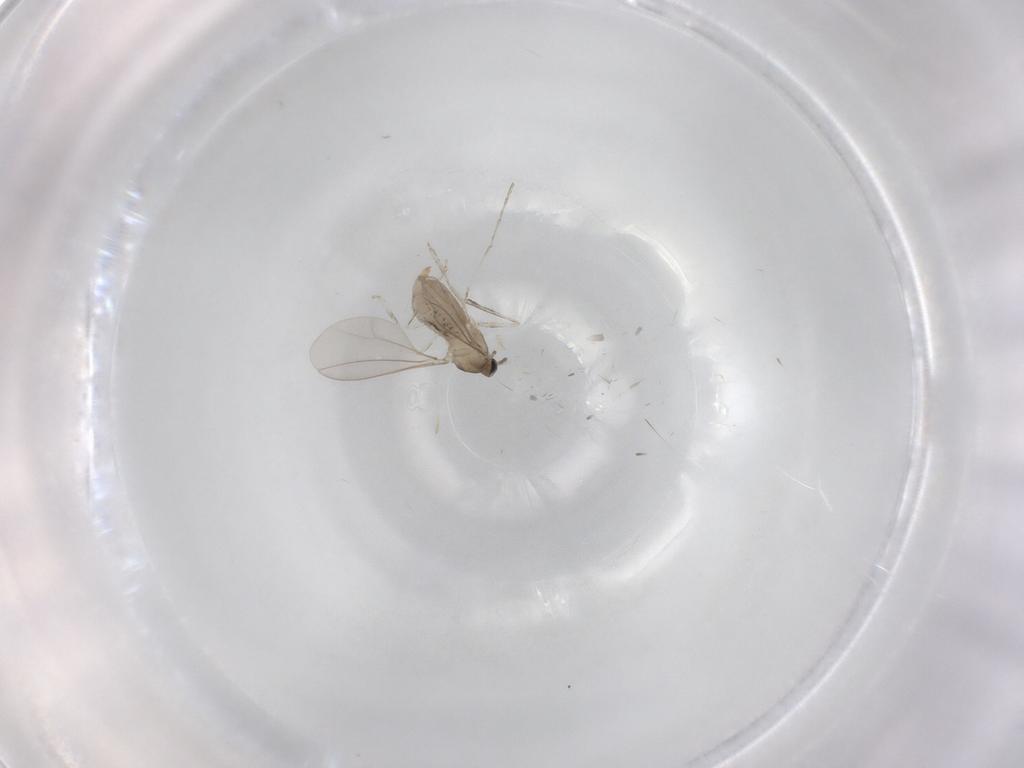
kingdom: Animalia
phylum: Arthropoda
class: Insecta
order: Diptera
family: Cecidomyiidae
